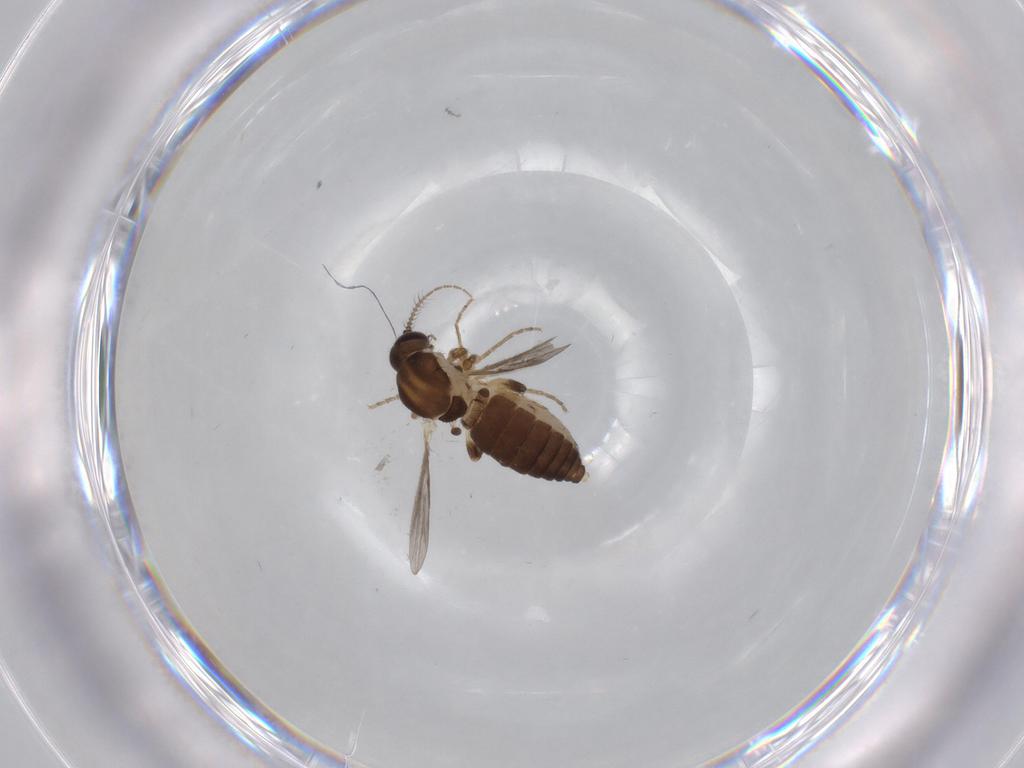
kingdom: Animalia
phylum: Arthropoda
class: Insecta
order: Diptera
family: Ceratopogonidae
